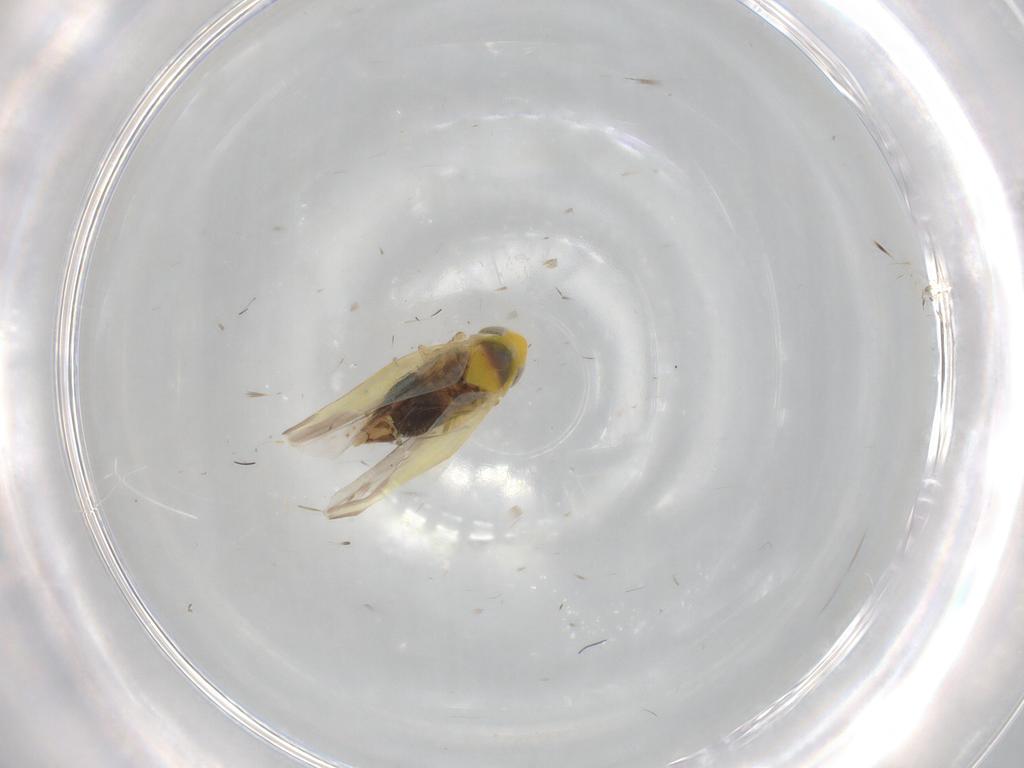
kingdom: Animalia
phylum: Arthropoda
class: Insecta
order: Hemiptera
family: Cicadellidae
